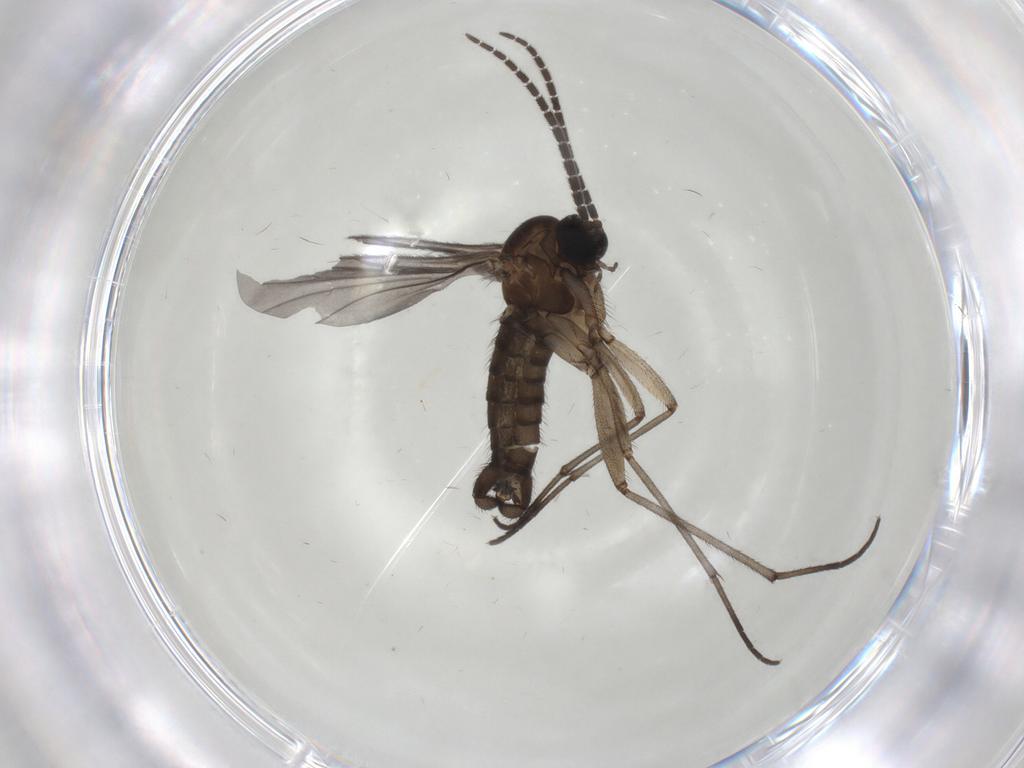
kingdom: Animalia
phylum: Arthropoda
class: Insecta
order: Diptera
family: Sciaridae
